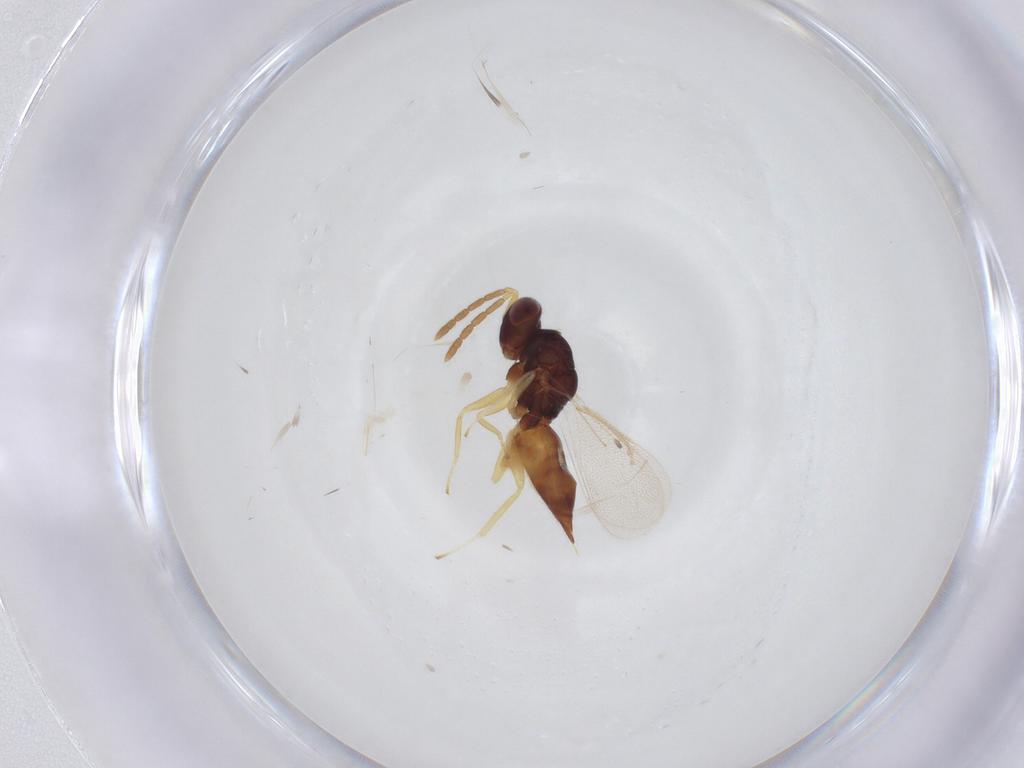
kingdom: Animalia
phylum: Arthropoda
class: Insecta
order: Hymenoptera
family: Eulophidae
